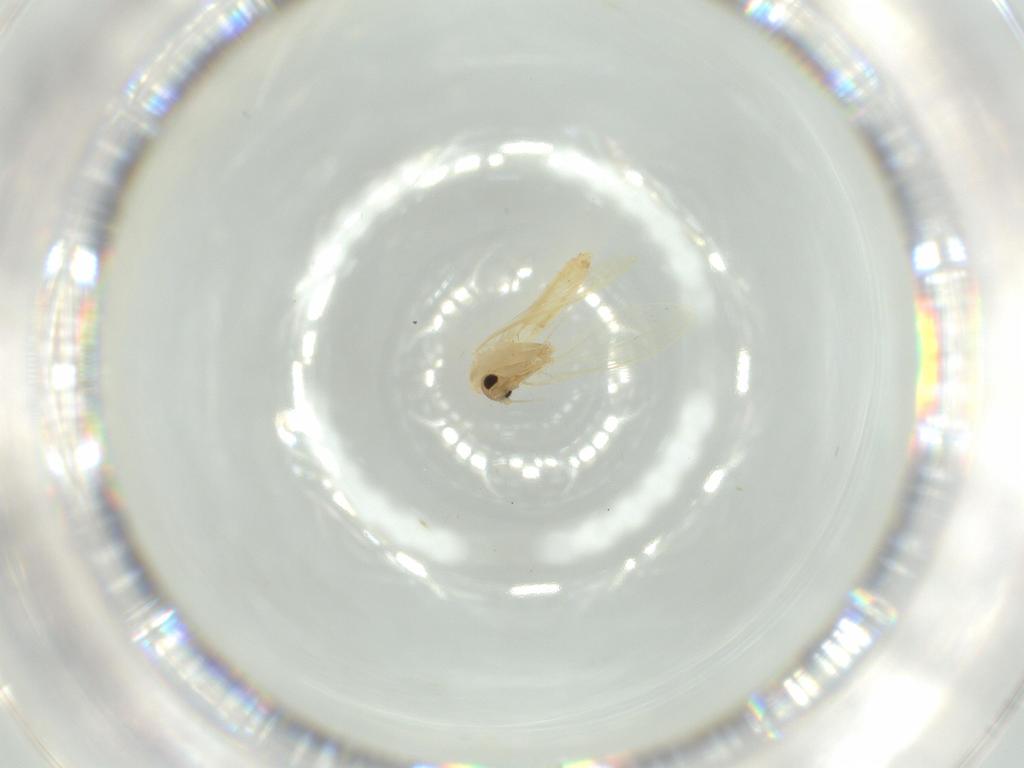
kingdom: Animalia
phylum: Arthropoda
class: Insecta
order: Diptera
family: Psychodidae
